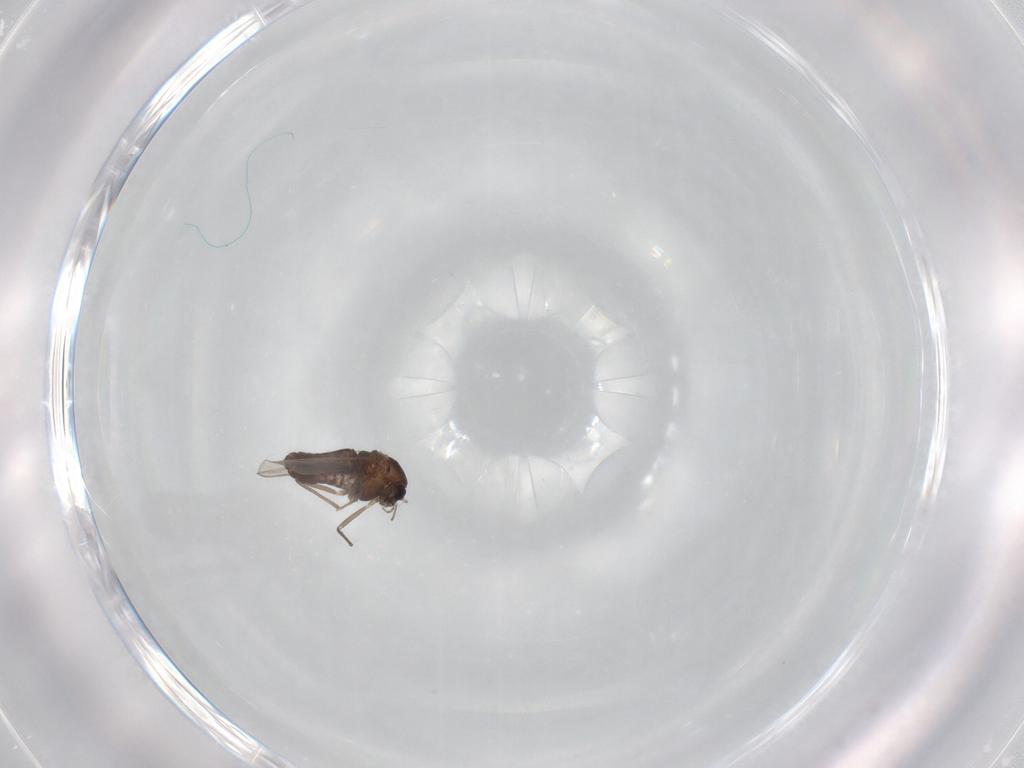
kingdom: Animalia
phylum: Arthropoda
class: Insecta
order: Diptera
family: Chironomidae
